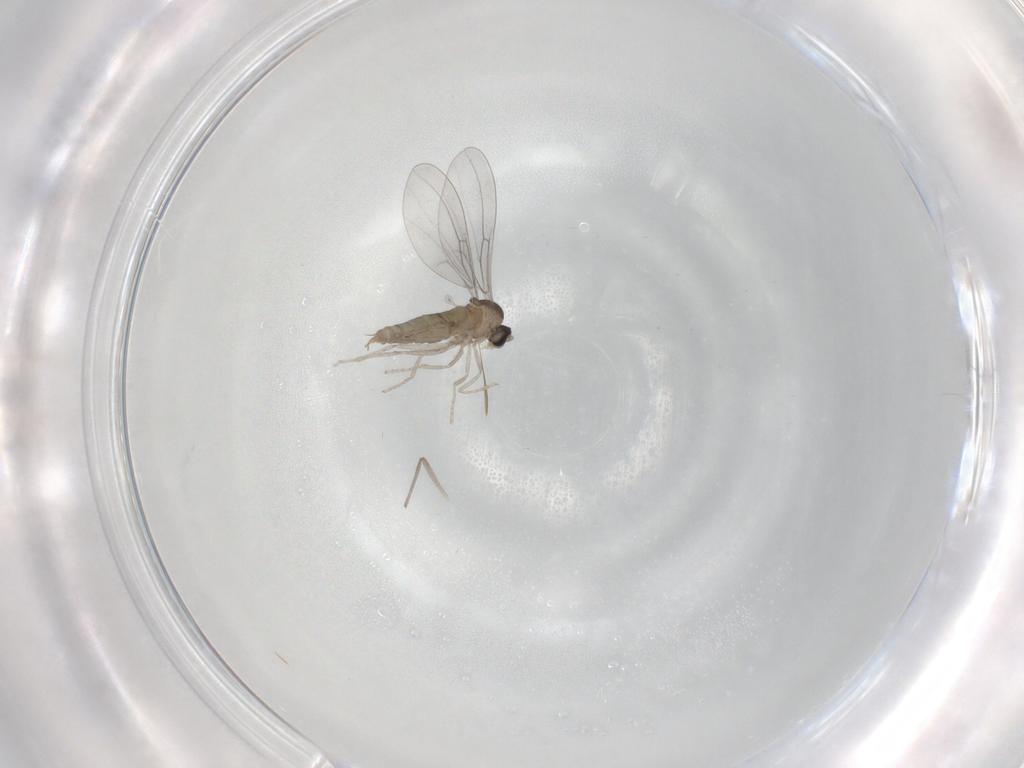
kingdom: Animalia
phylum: Arthropoda
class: Insecta
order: Diptera
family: Chironomidae
